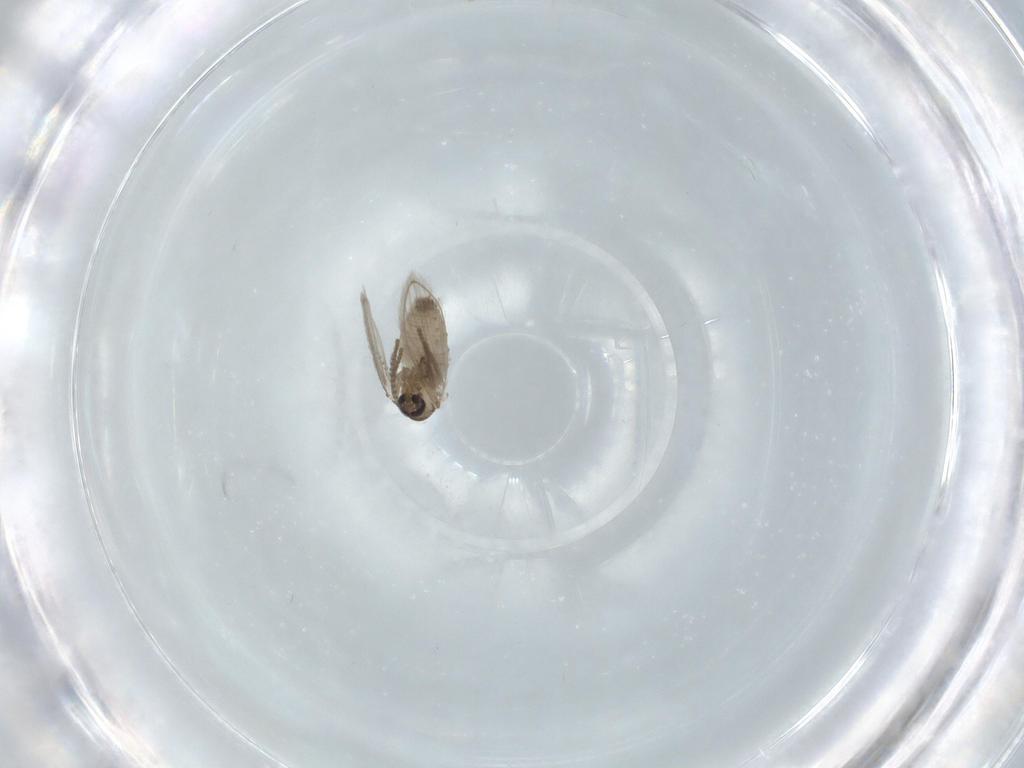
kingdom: Animalia
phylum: Arthropoda
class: Insecta
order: Diptera
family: Psychodidae
